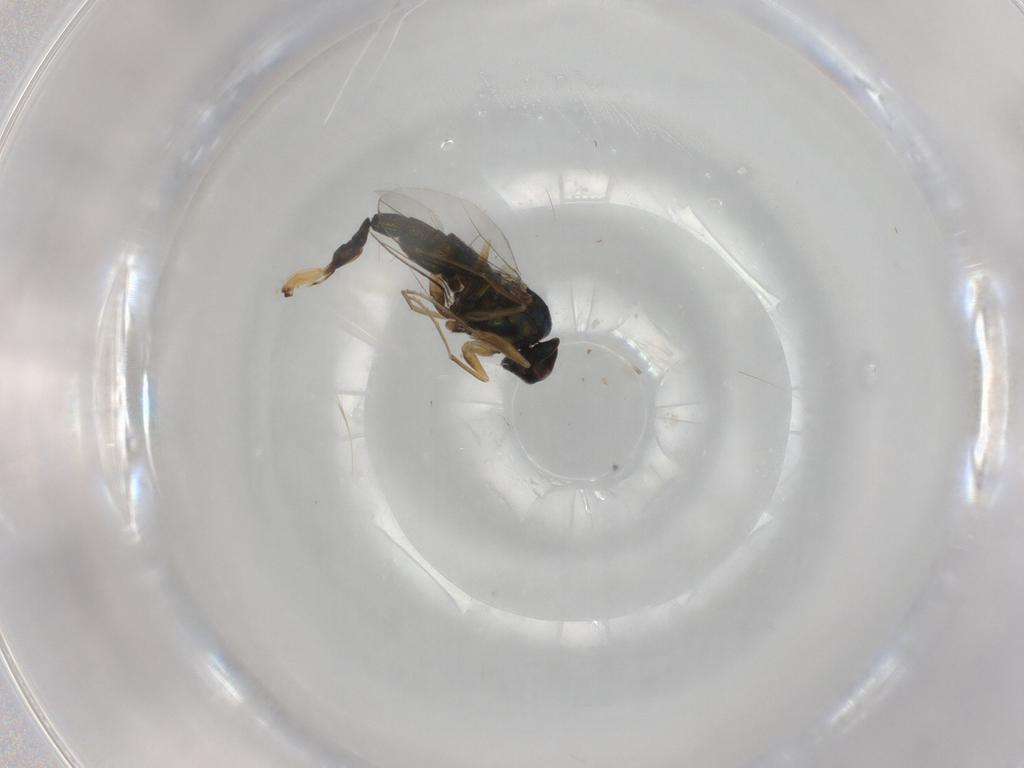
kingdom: Animalia
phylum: Arthropoda
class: Insecta
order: Diptera
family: Dolichopodidae
